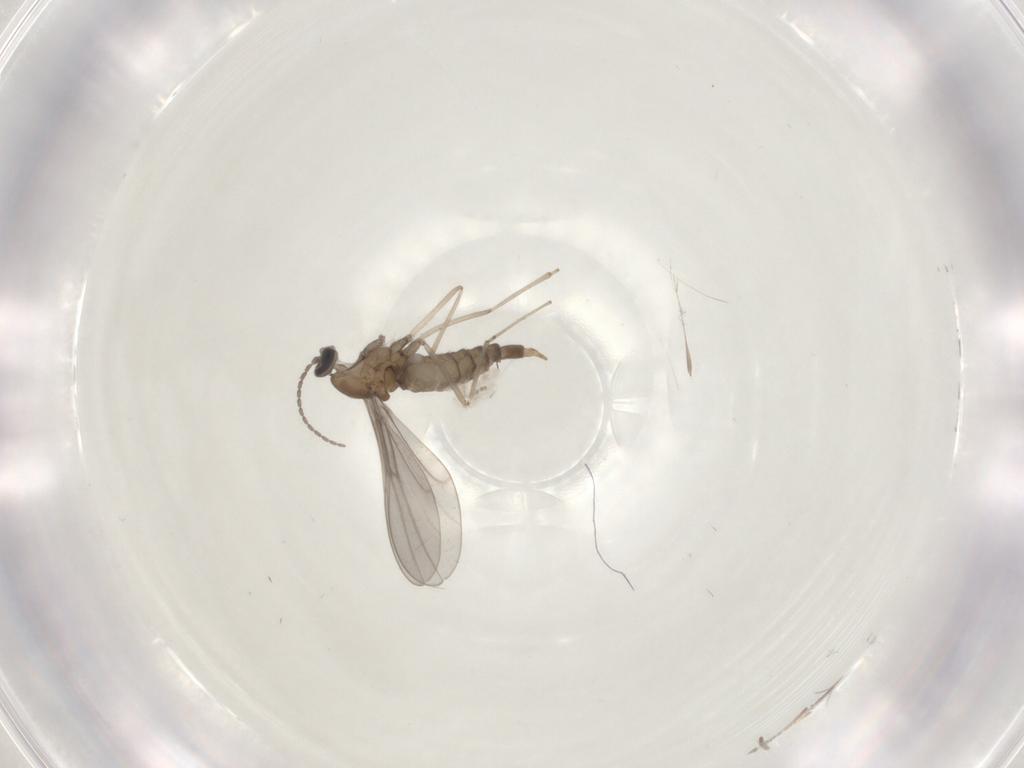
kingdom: Animalia
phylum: Arthropoda
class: Insecta
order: Diptera
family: Cecidomyiidae
